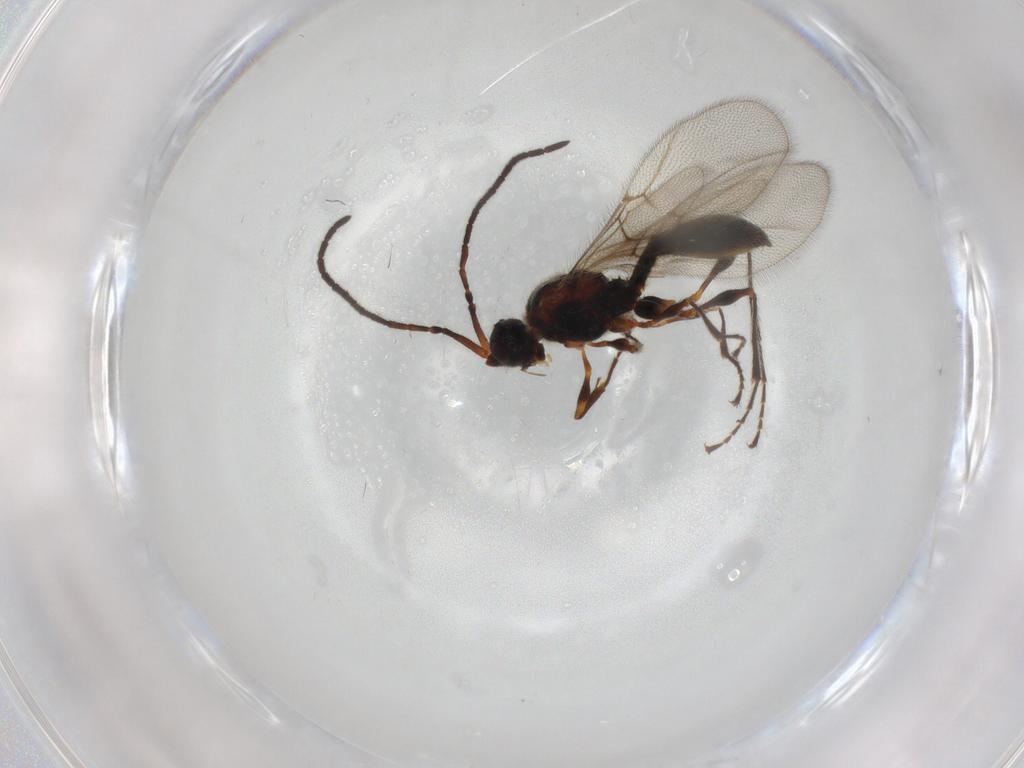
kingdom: Animalia
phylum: Arthropoda
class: Insecta
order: Hymenoptera
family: Diapriidae
